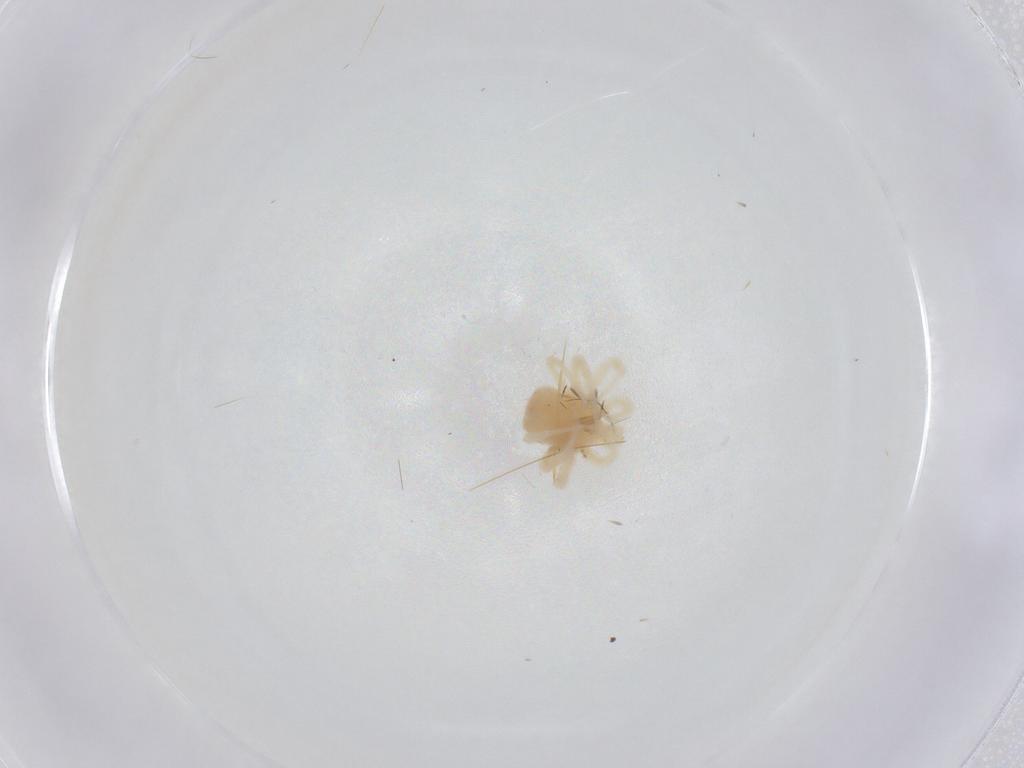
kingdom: Animalia
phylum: Arthropoda
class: Arachnida
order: Trombidiformes
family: Erythraeidae
